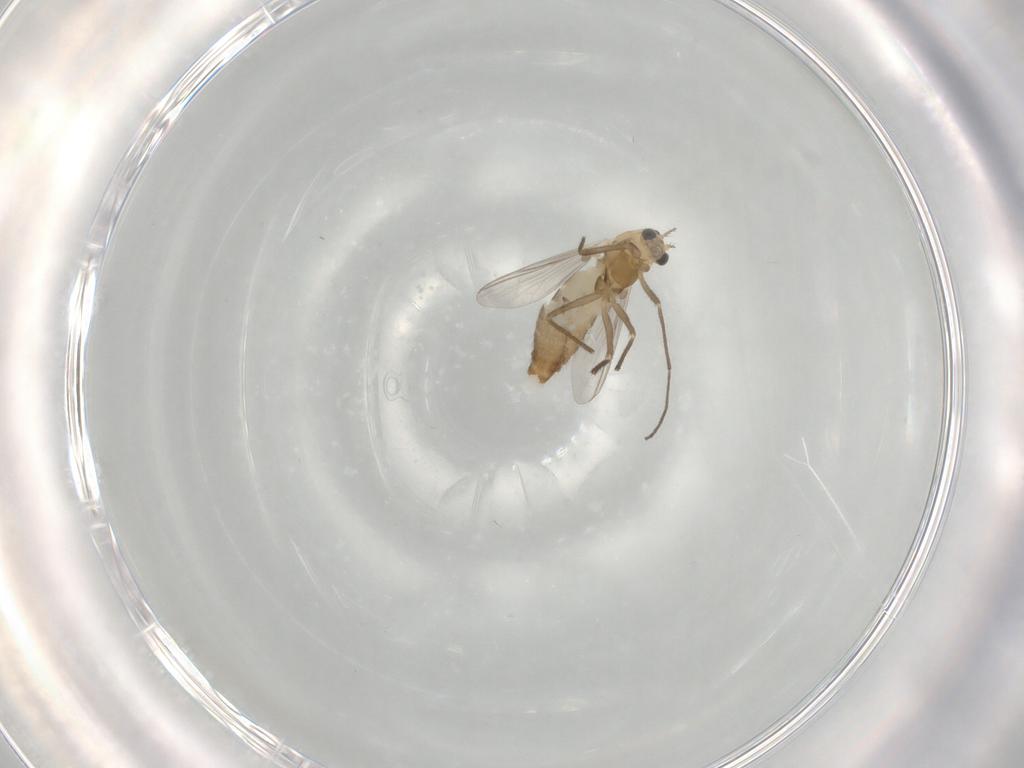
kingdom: Animalia
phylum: Arthropoda
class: Insecta
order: Diptera
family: Chironomidae
